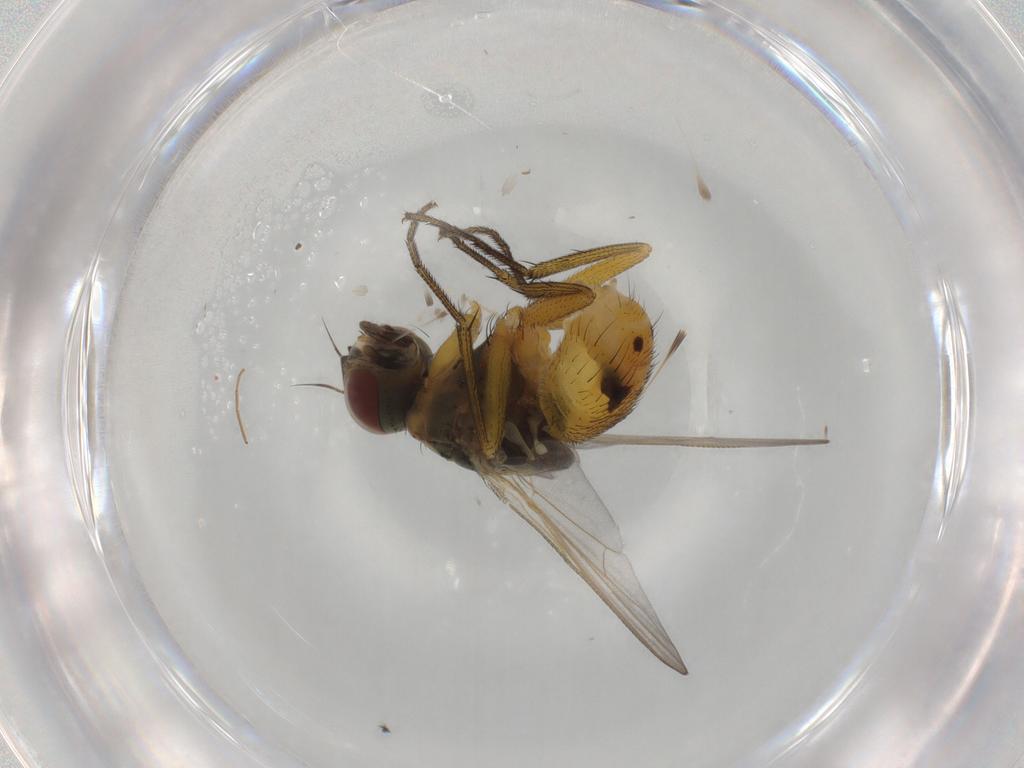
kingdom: Animalia
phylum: Arthropoda
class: Insecta
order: Diptera
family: Muscidae
